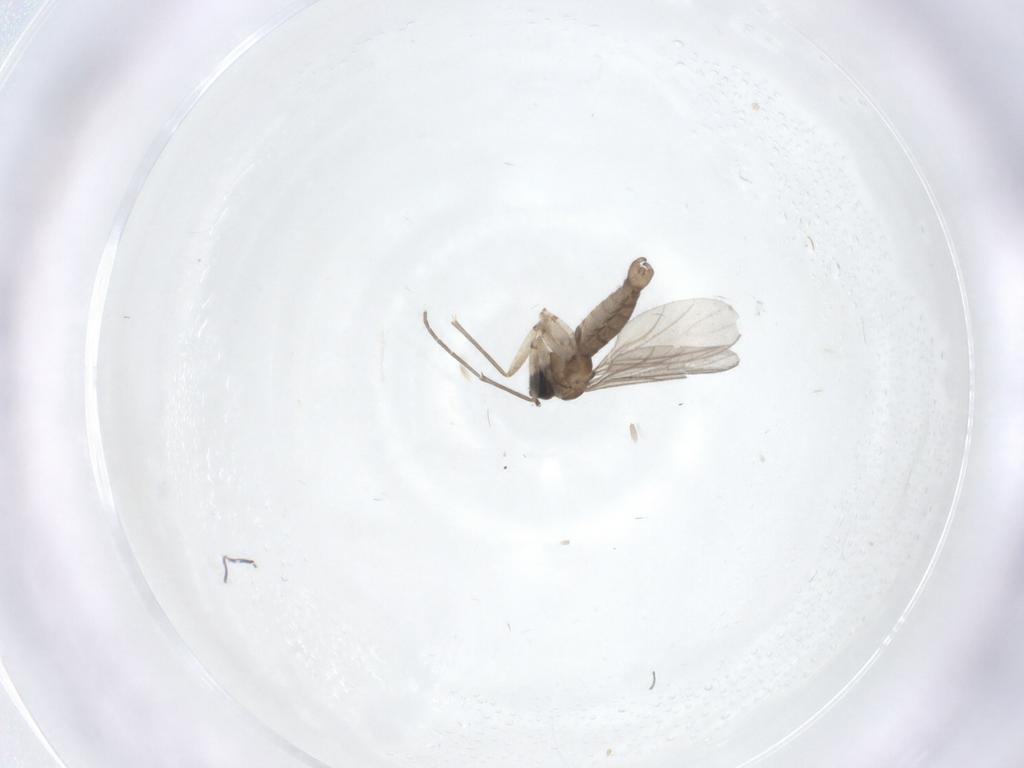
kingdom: Animalia
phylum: Arthropoda
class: Insecta
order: Diptera
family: Sciaridae
